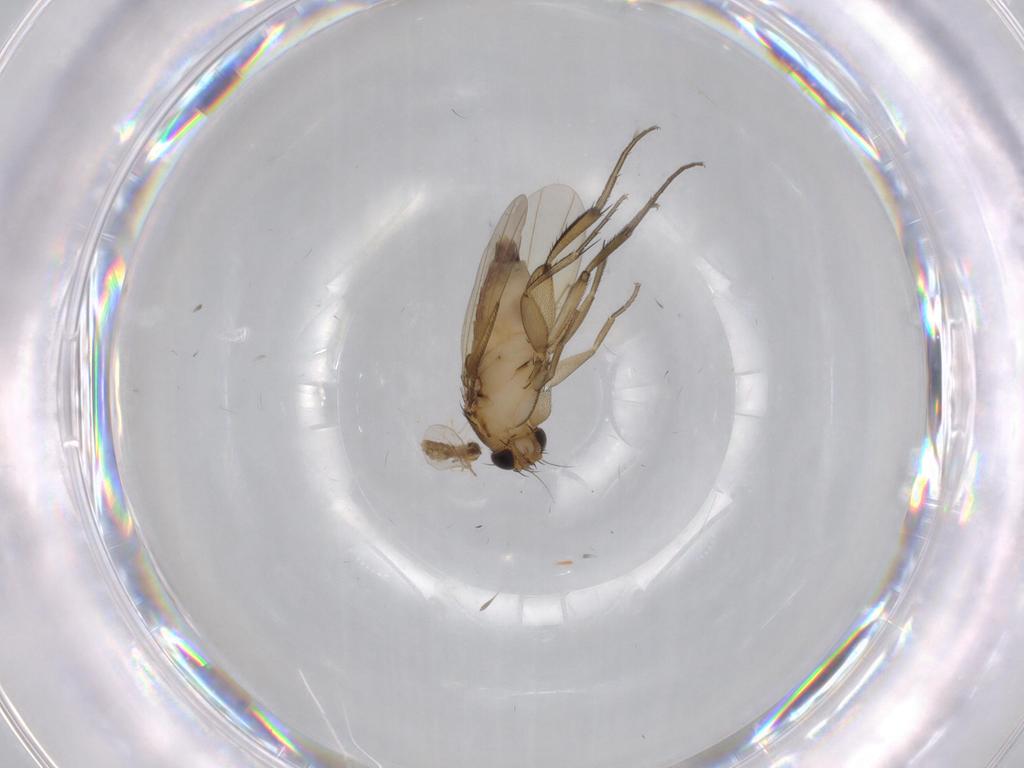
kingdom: Animalia
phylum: Arthropoda
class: Insecta
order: Diptera
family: Phoridae
